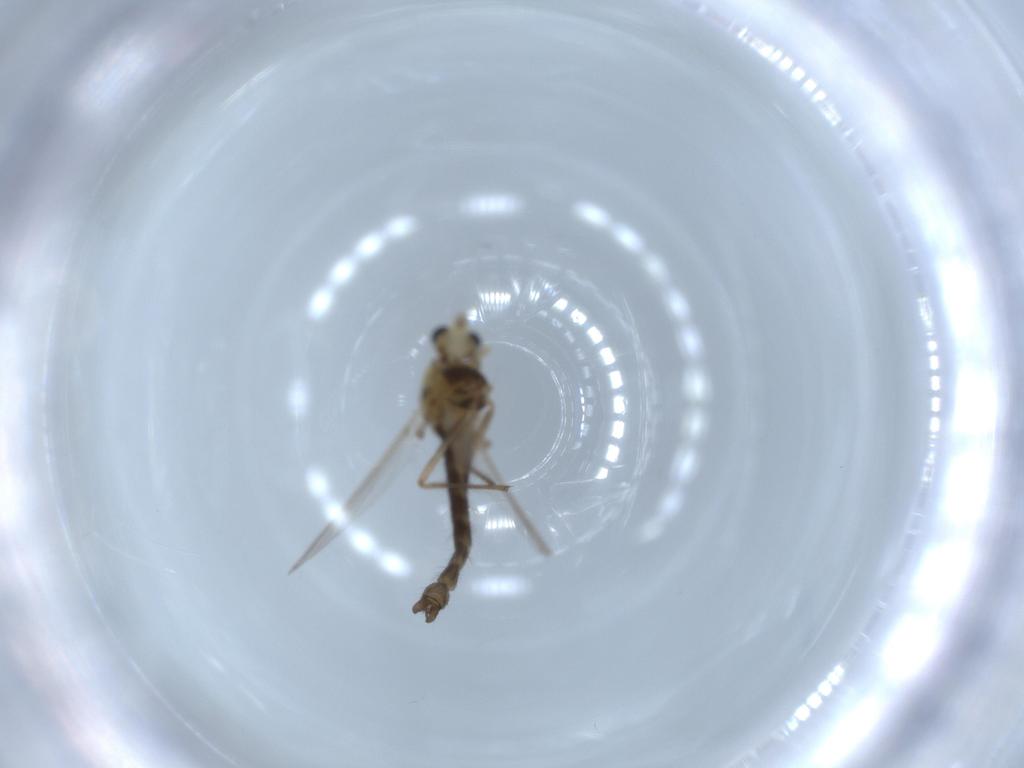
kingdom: Animalia
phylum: Arthropoda
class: Insecta
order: Diptera
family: Chironomidae
